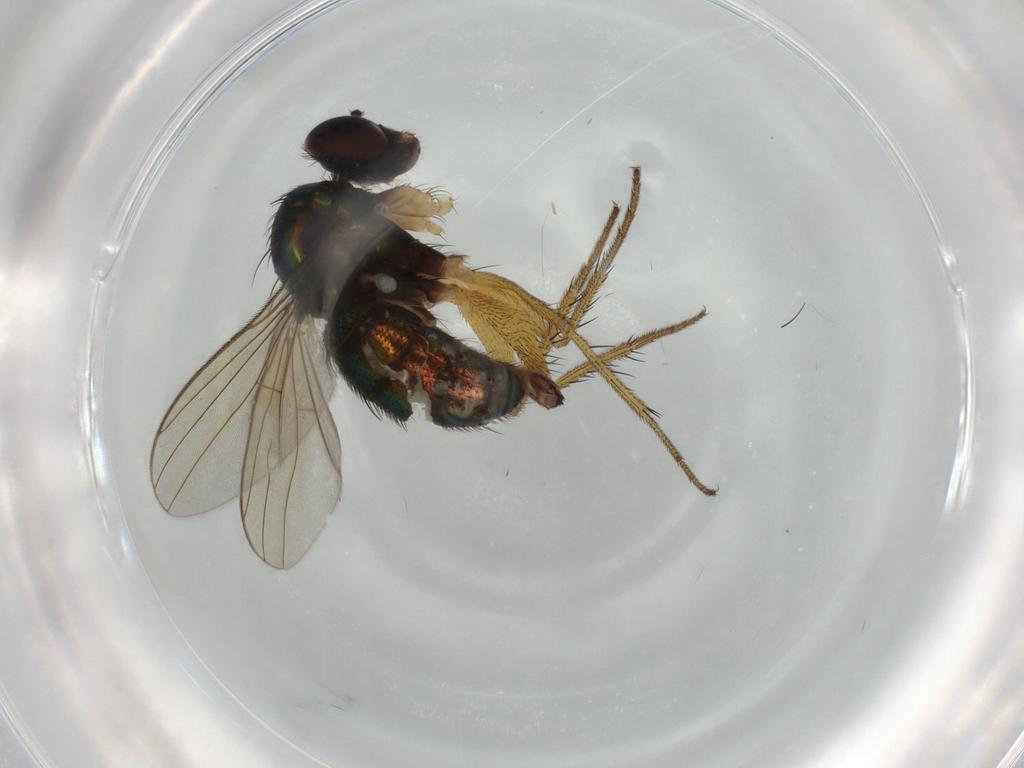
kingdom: Animalia
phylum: Arthropoda
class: Insecta
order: Diptera
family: Dolichopodidae
